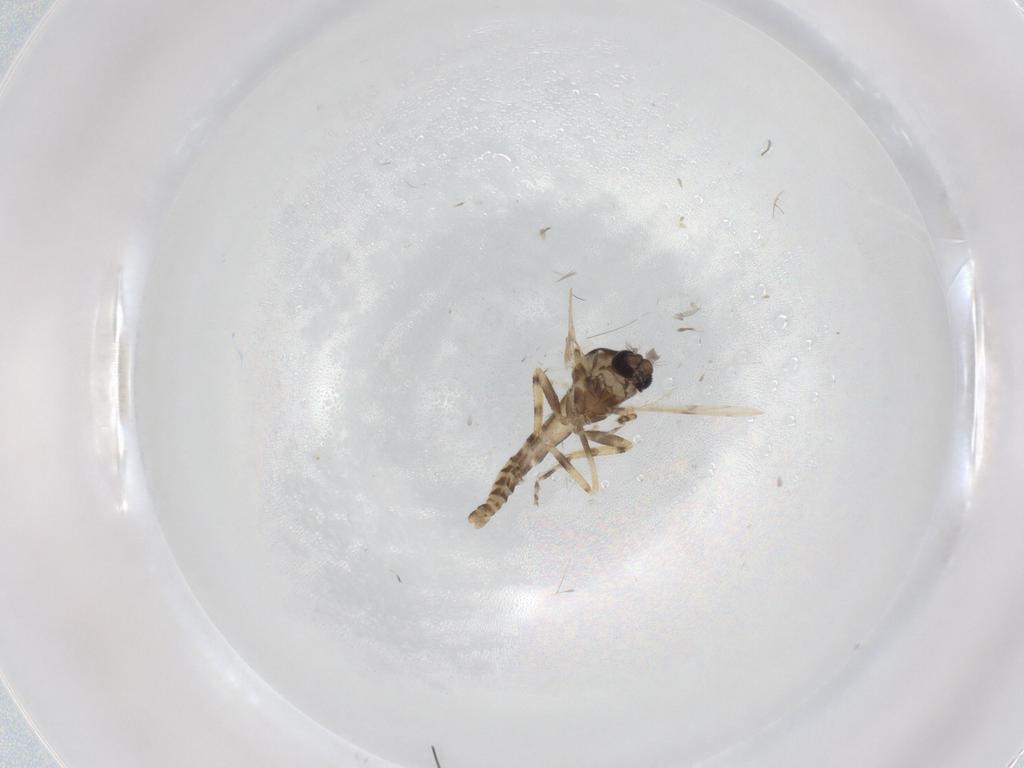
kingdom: Animalia
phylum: Arthropoda
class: Insecta
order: Diptera
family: Ceratopogonidae
